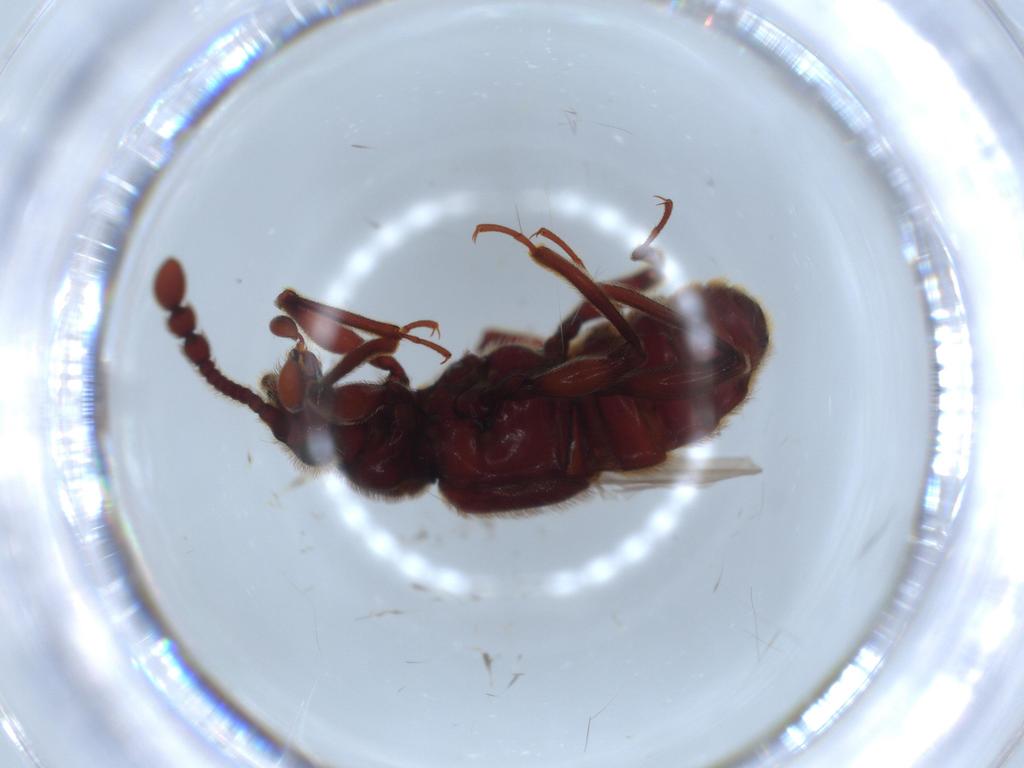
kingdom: Animalia
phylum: Arthropoda
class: Insecta
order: Coleoptera
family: Staphylinidae
